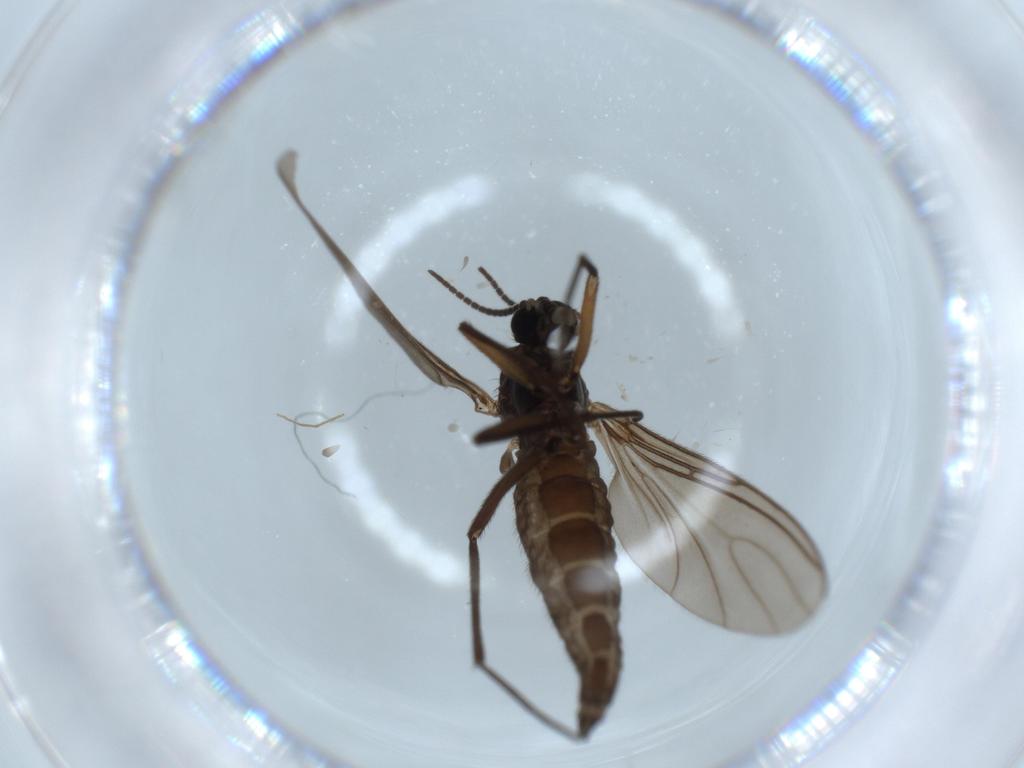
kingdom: Animalia
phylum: Arthropoda
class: Insecta
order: Diptera
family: Sciaridae
